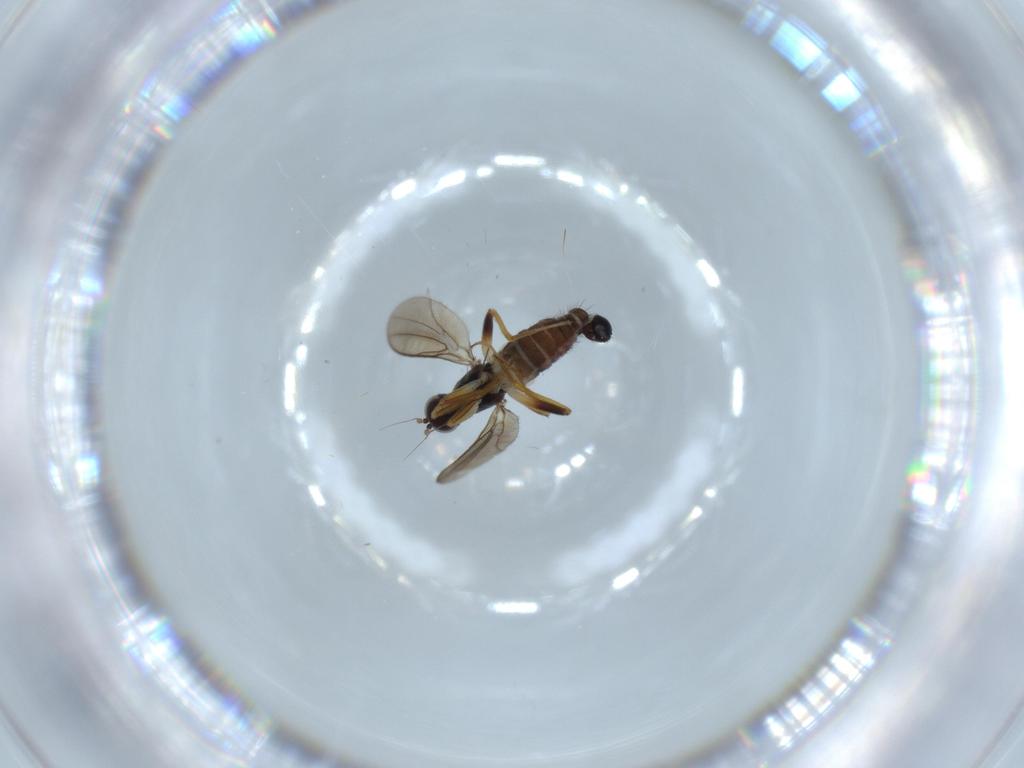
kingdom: Animalia
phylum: Arthropoda
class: Insecta
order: Diptera
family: Hybotidae
